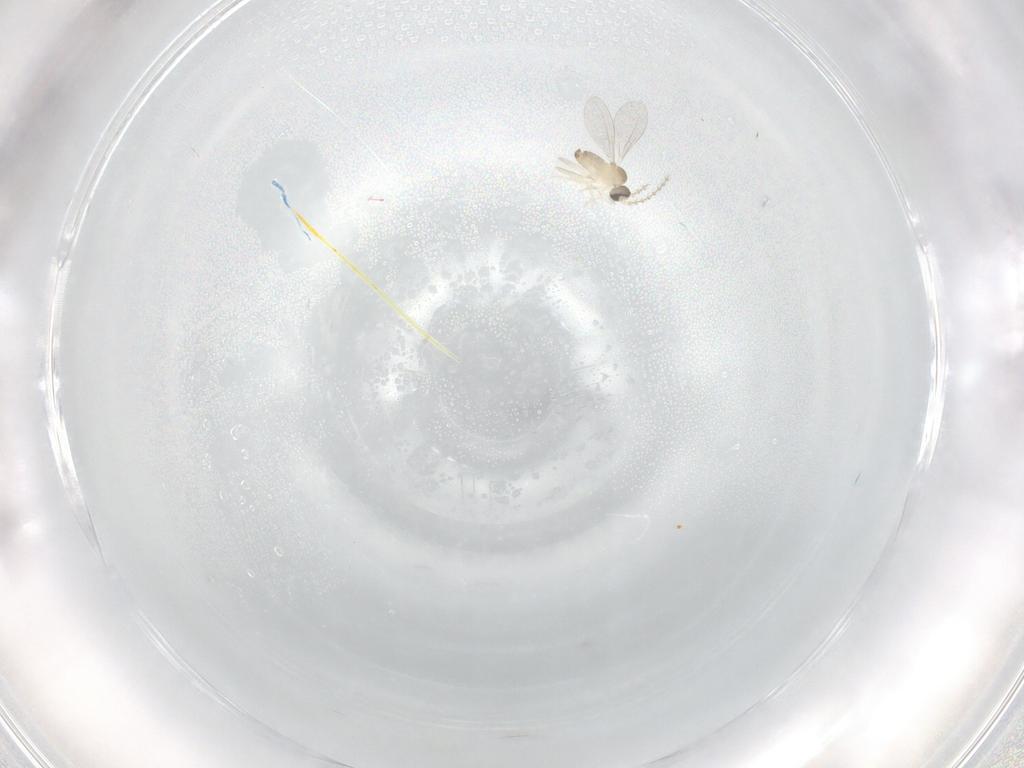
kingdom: Animalia
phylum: Arthropoda
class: Insecta
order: Diptera
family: Cecidomyiidae
